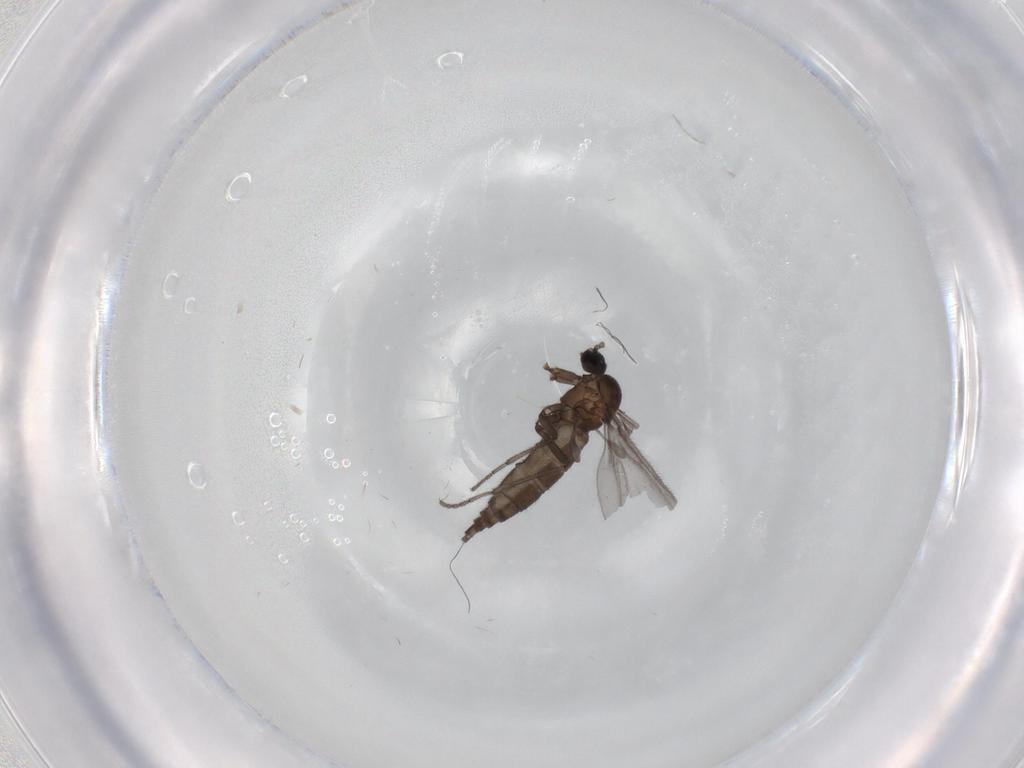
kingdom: Animalia
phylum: Arthropoda
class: Insecta
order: Diptera
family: Sciaridae
